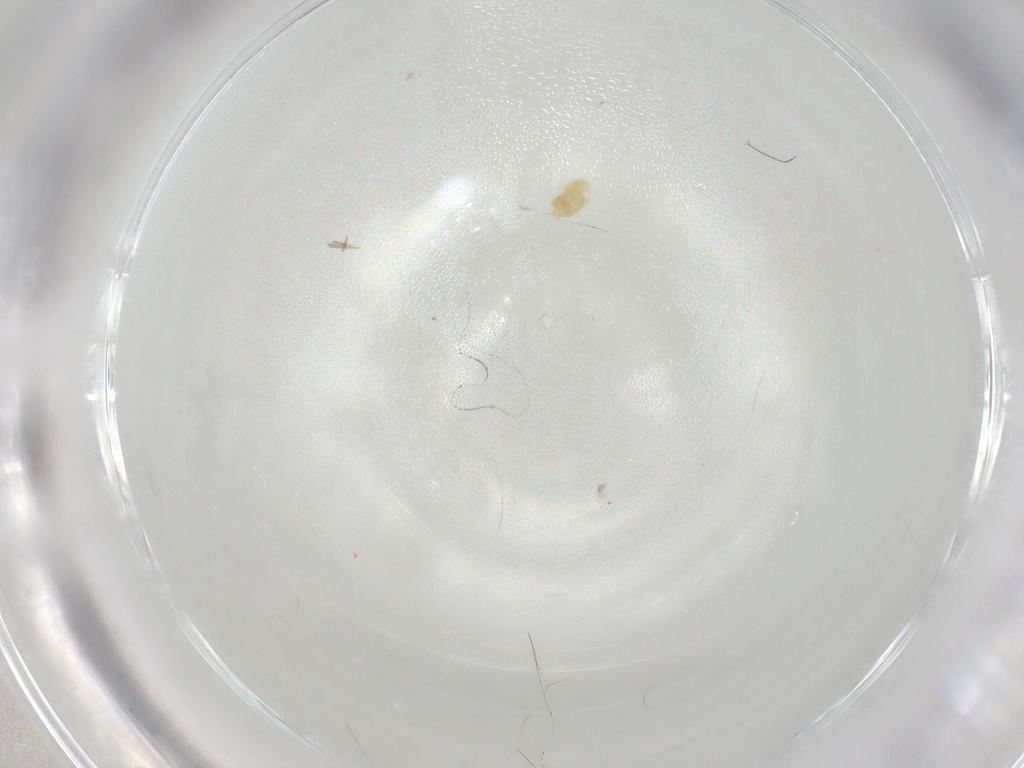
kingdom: Animalia
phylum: Arthropoda
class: Arachnida
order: Trombidiformes
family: Eupodidae
